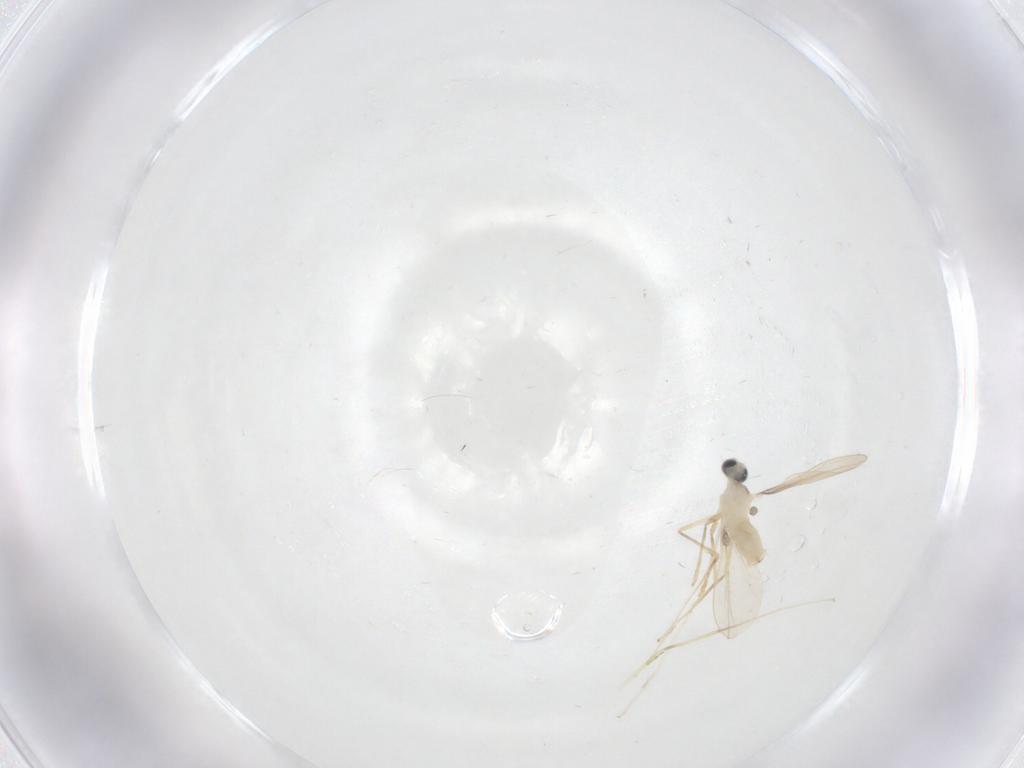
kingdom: Animalia
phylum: Arthropoda
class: Insecta
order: Diptera
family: Cecidomyiidae
